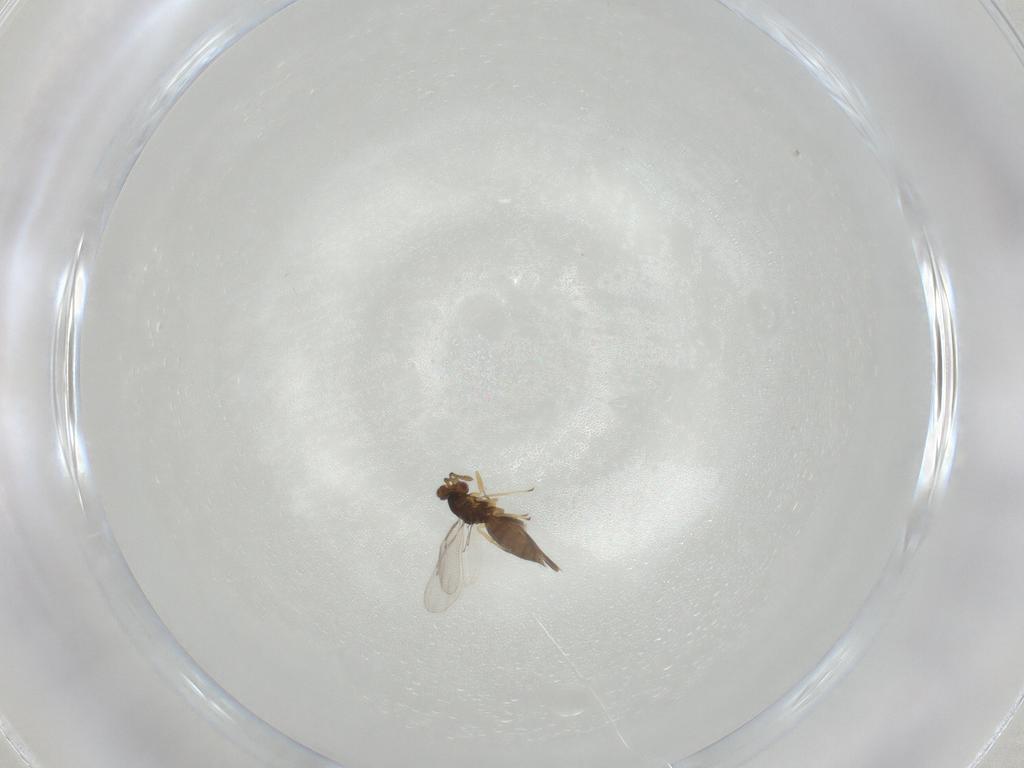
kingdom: Animalia
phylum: Arthropoda
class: Insecta
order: Hymenoptera
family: Eulophidae
